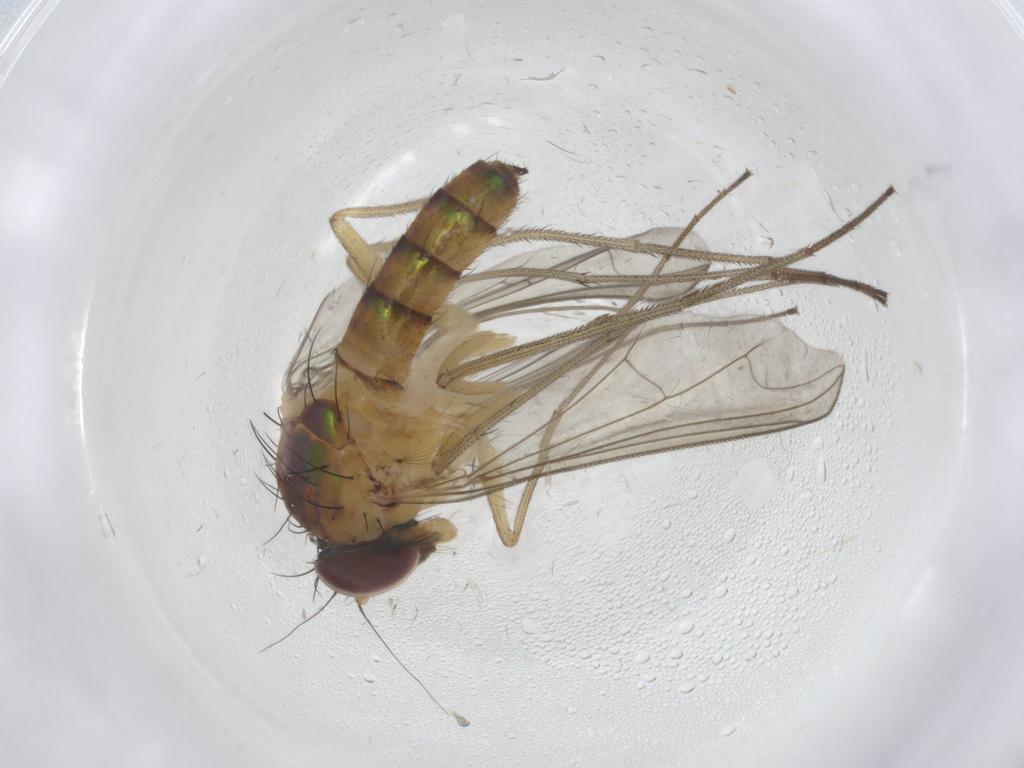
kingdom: Animalia
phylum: Arthropoda
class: Insecta
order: Diptera
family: Dolichopodidae
